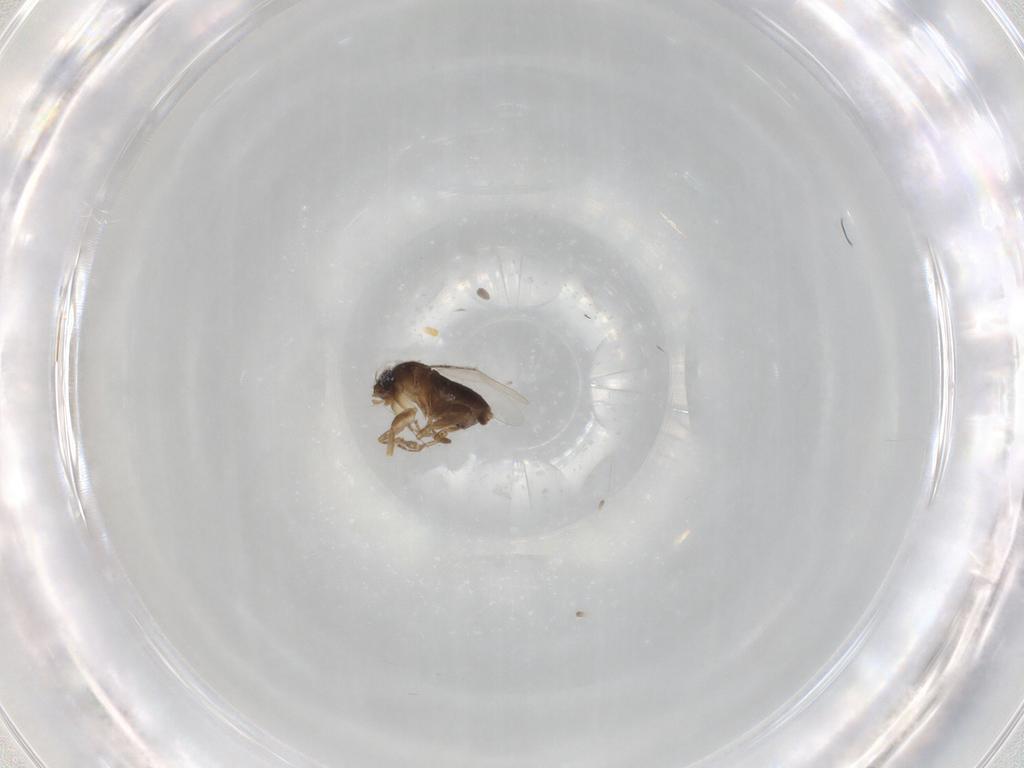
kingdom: Animalia
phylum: Arthropoda
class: Insecta
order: Diptera
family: Phoridae
